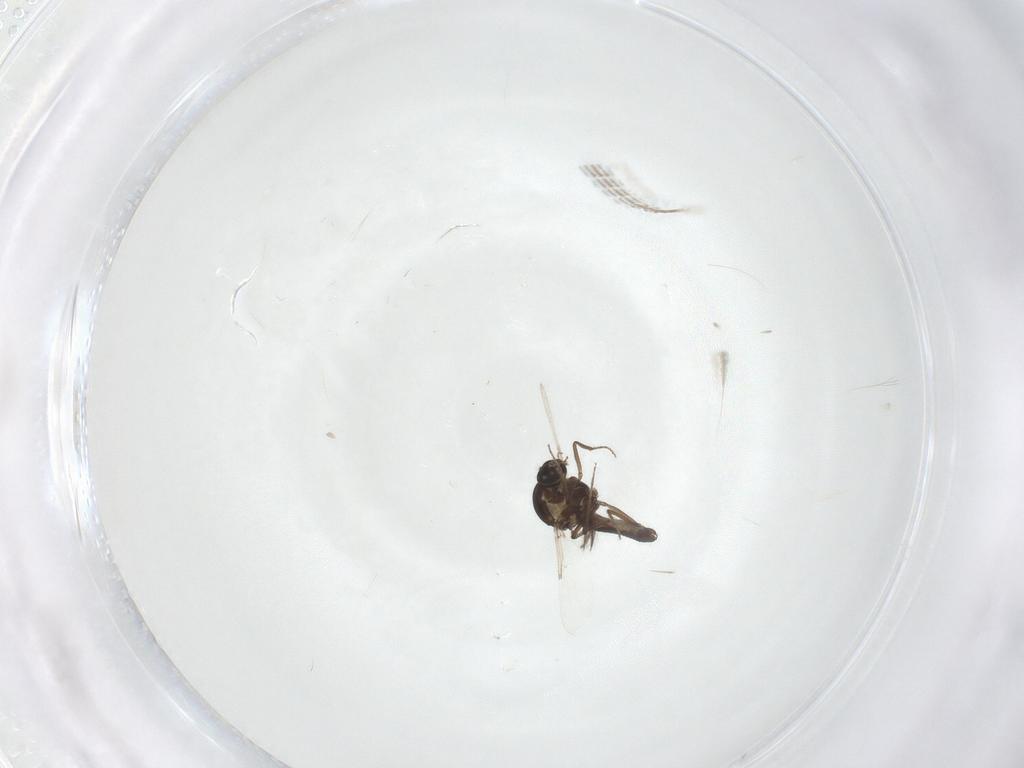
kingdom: Animalia
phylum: Arthropoda
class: Insecta
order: Diptera
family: Ceratopogonidae
